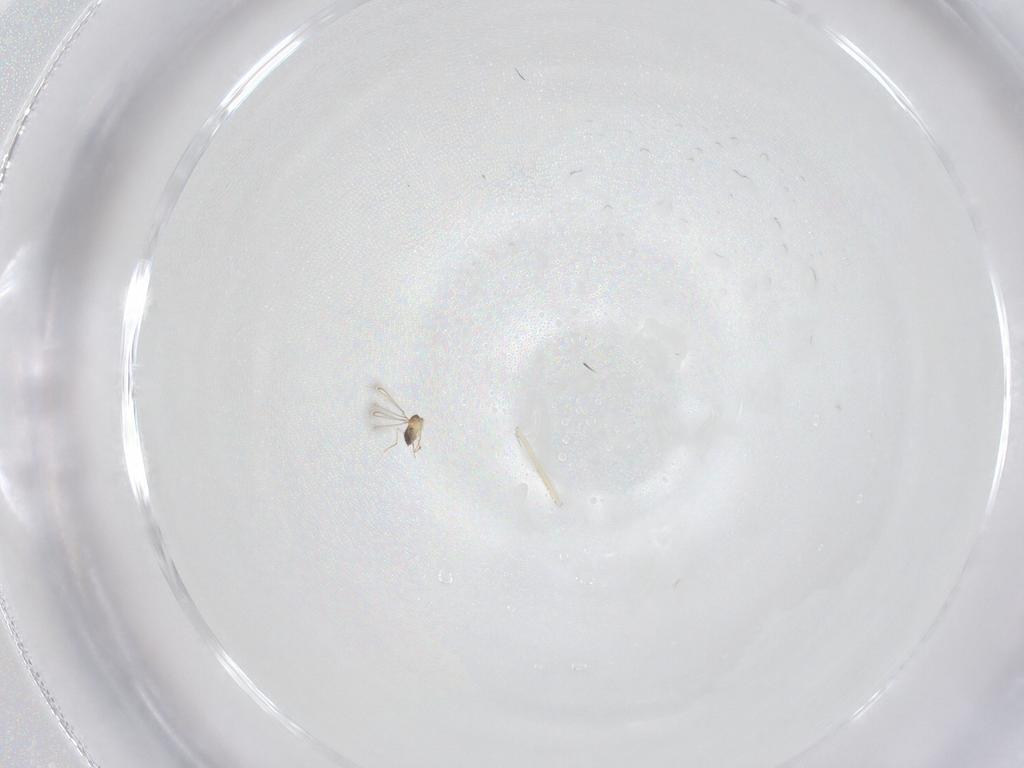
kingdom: Animalia
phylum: Arthropoda
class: Insecta
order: Hymenoptera
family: Mymaridae
